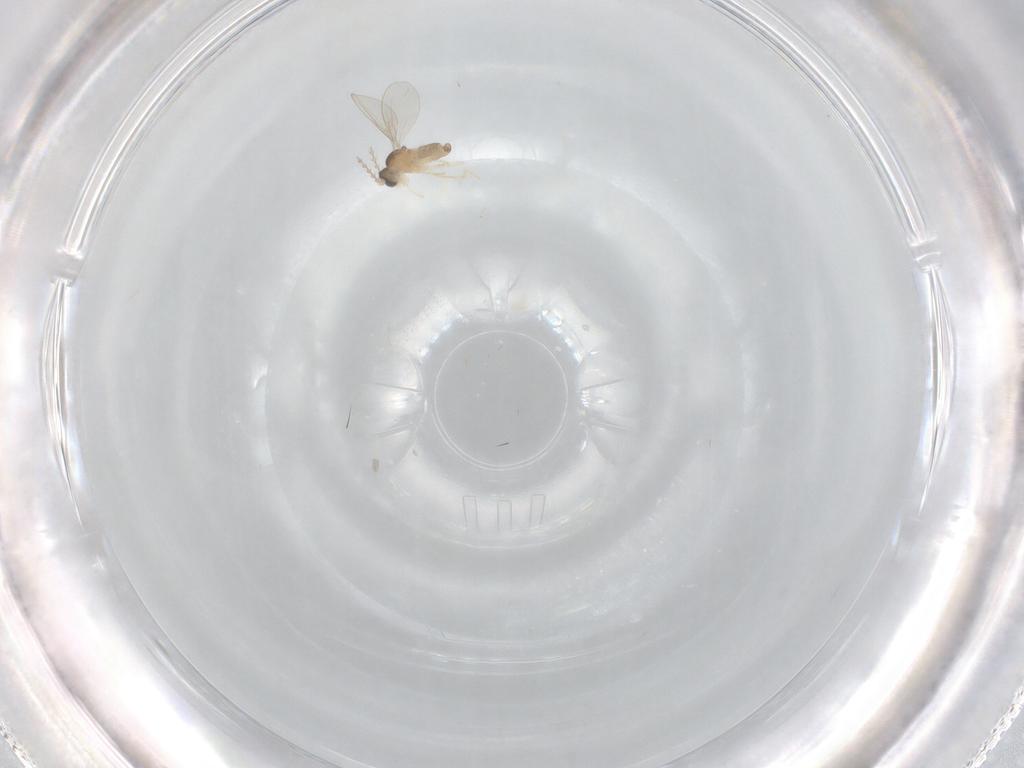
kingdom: Animalia
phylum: Arthropoda
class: Insecta
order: Diptera
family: Cecidomyiidae
